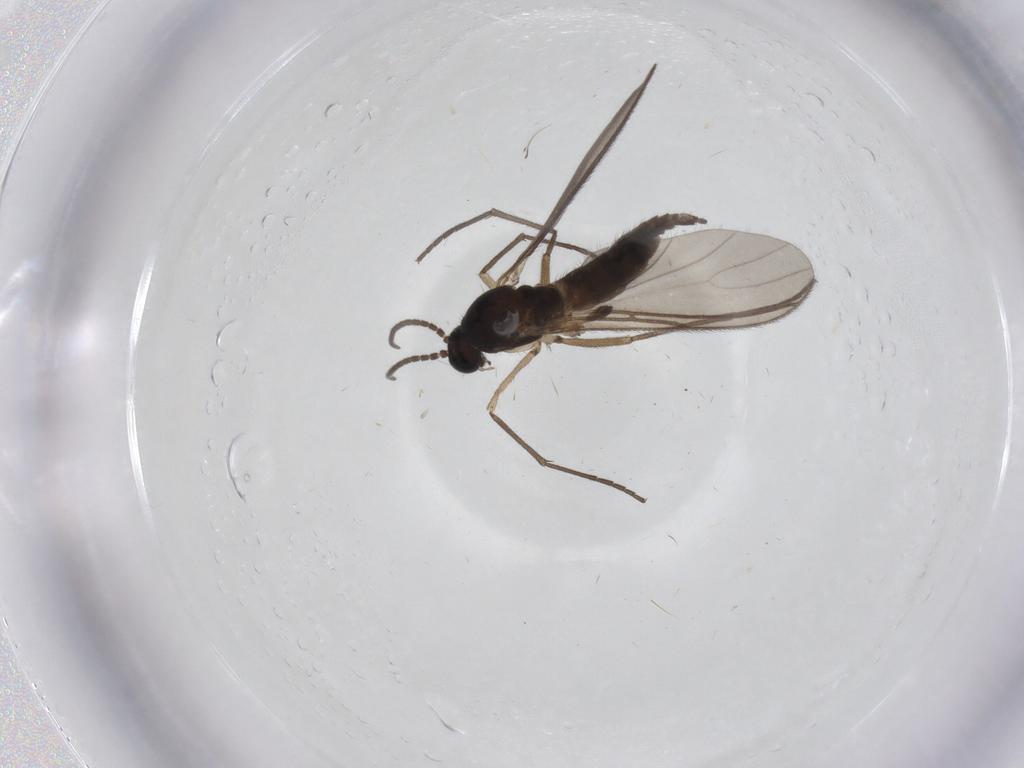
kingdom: Animalia
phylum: Arthropoda
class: Insecta
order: Diptera
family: Sciaridae
